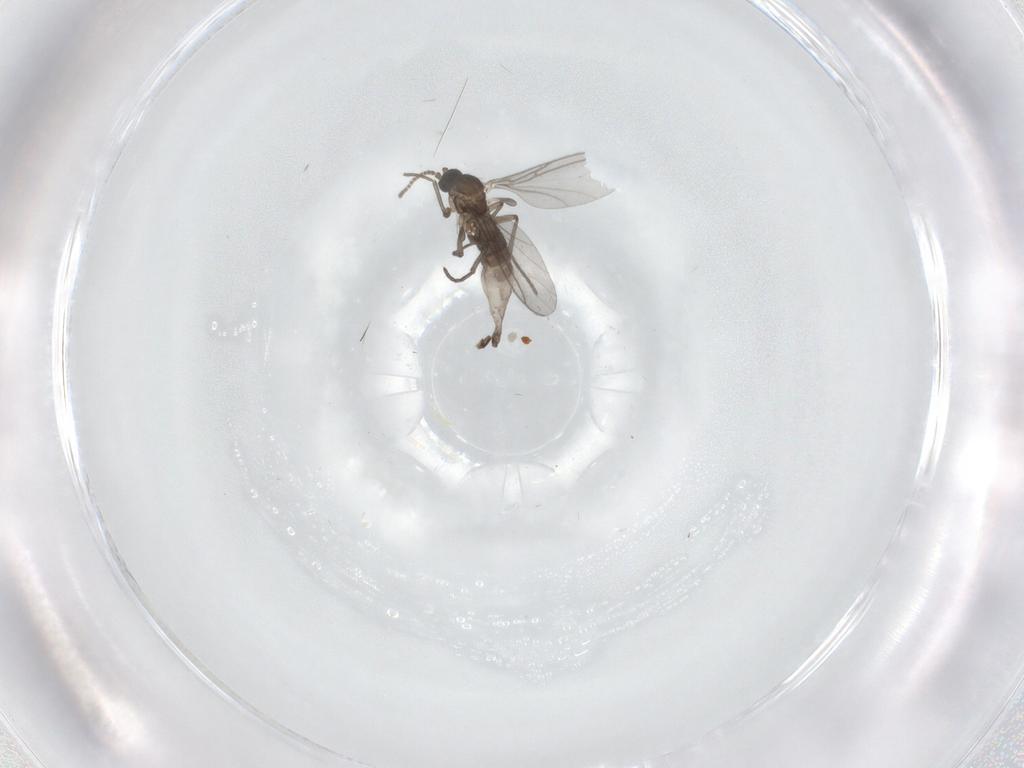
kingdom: Animalia
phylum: Arthropoda
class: Insecta
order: Diptera
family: Sciaridae
